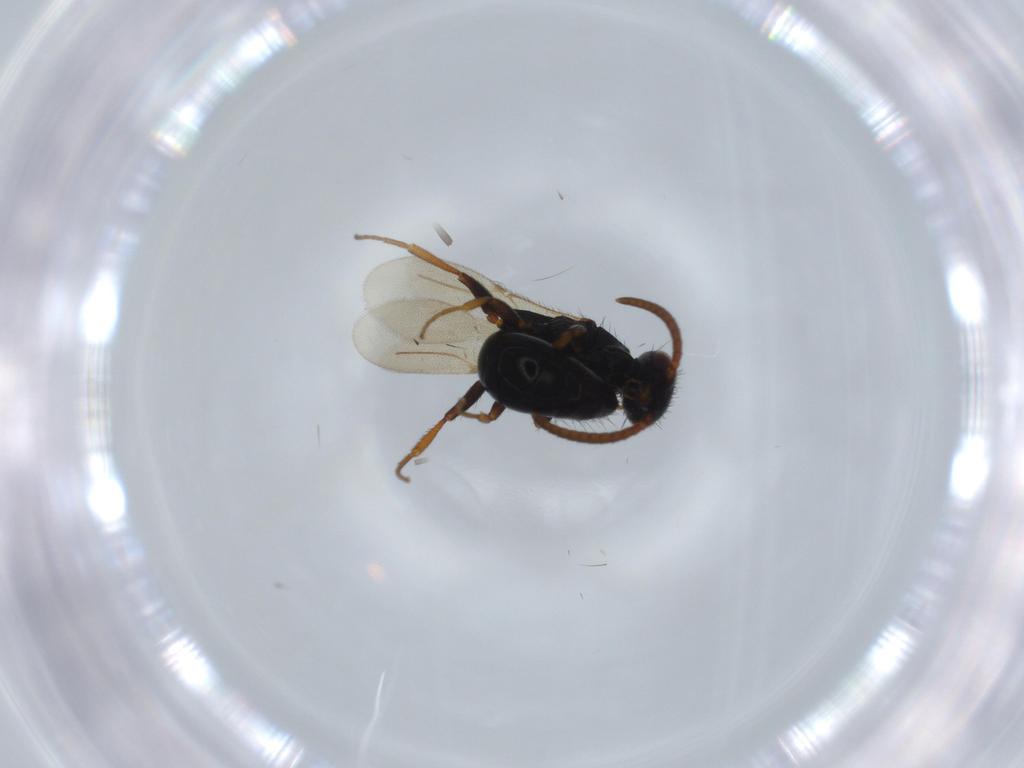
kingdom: Animalia
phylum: Arthropoda
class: Insecta
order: Hymenoptera
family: Bethylidae
